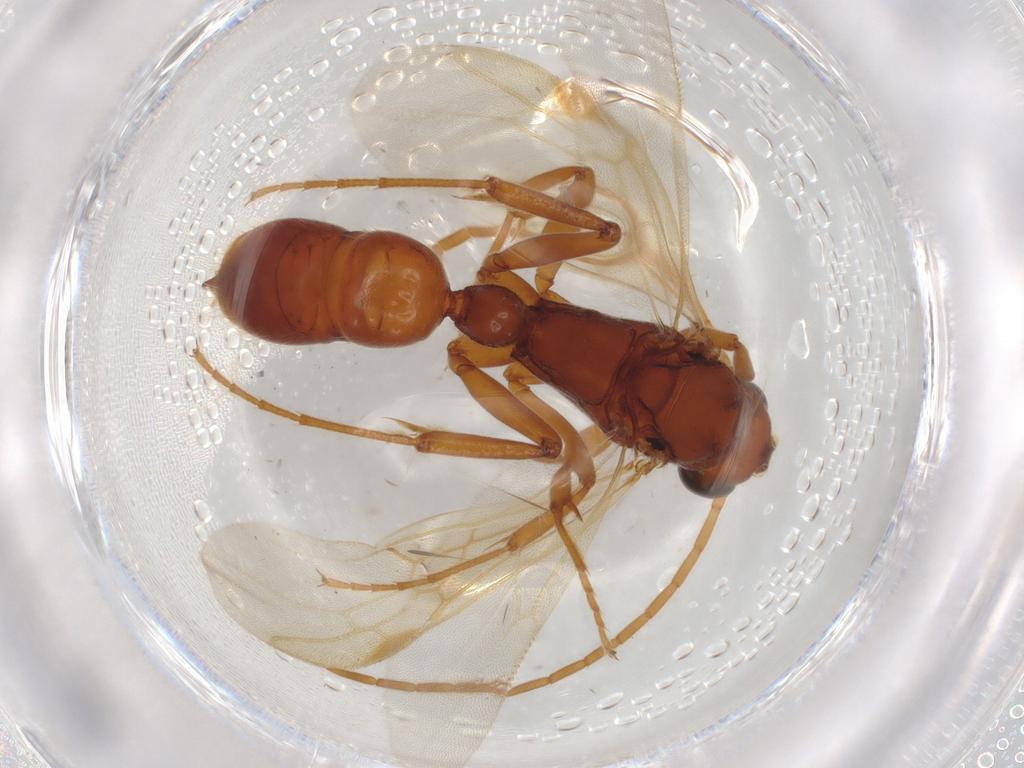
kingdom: Animalia
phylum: Arthropoda
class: Insecta
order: Hymenoptera
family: Formicidae
